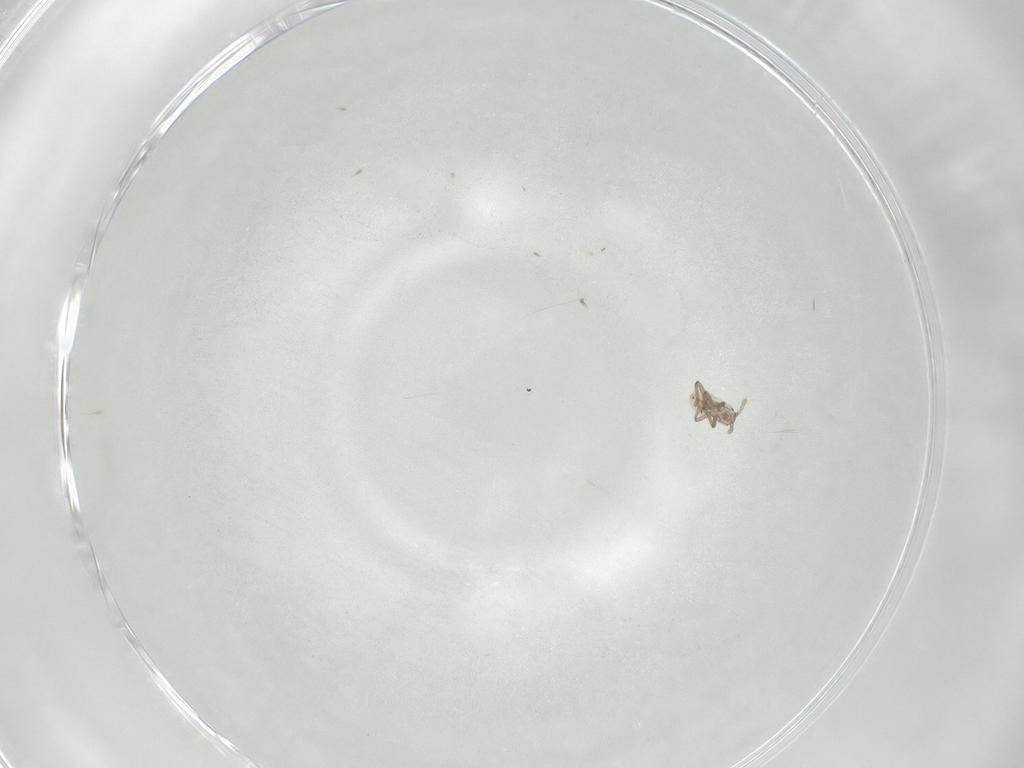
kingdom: Animalia
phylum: Arthropoda
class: Insecta
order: Hemiptera
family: Aphididae
